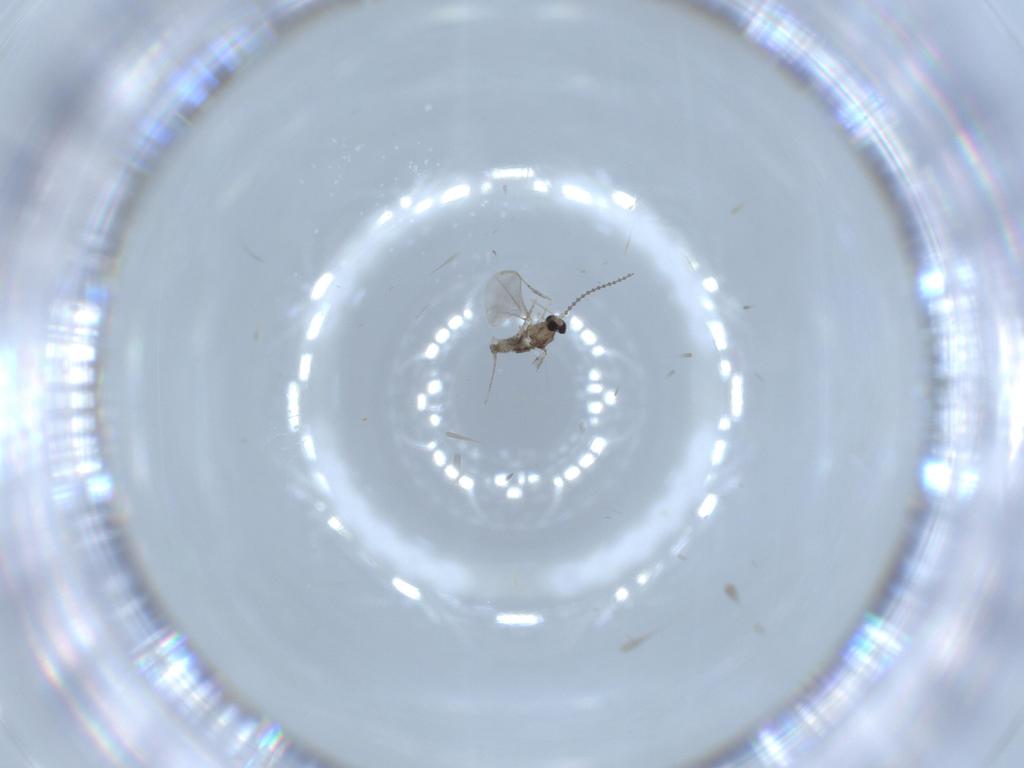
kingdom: Animalia
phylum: Arthropoda
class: Insecta
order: Diptera
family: Cecidomyiidae
